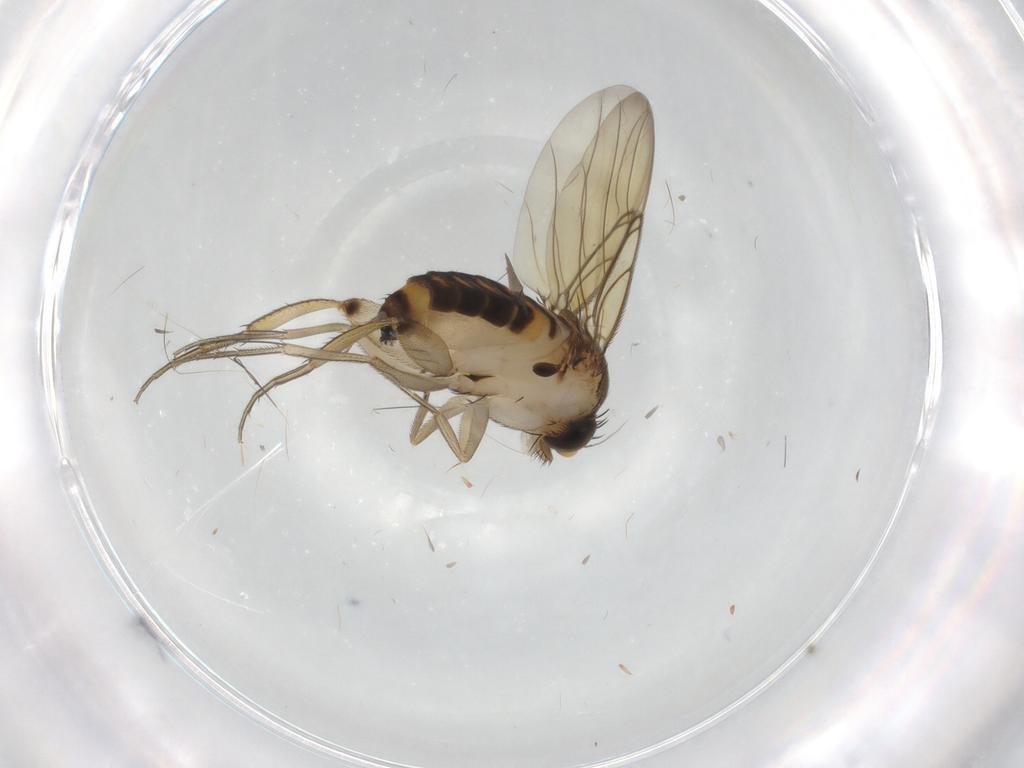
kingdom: Animalia
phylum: Arthropoda
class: Insecta
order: Diptera
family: Phoridae
